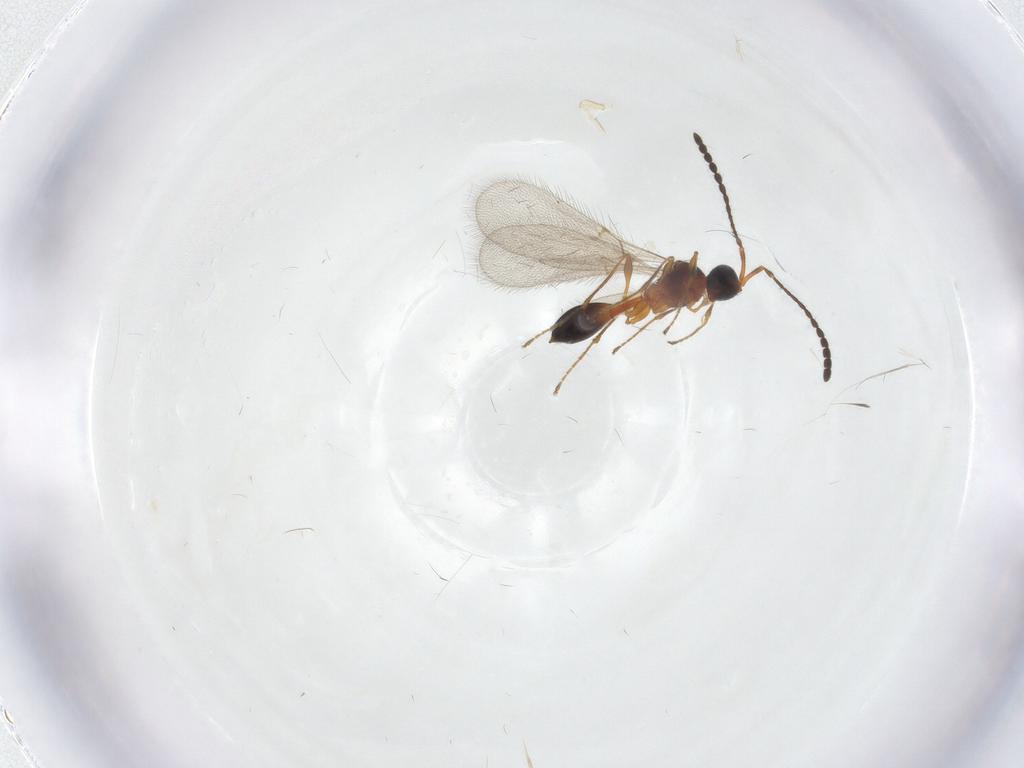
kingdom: Animalia
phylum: Arthropoda
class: Insecta
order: Hymenoptera
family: Diapriidae
